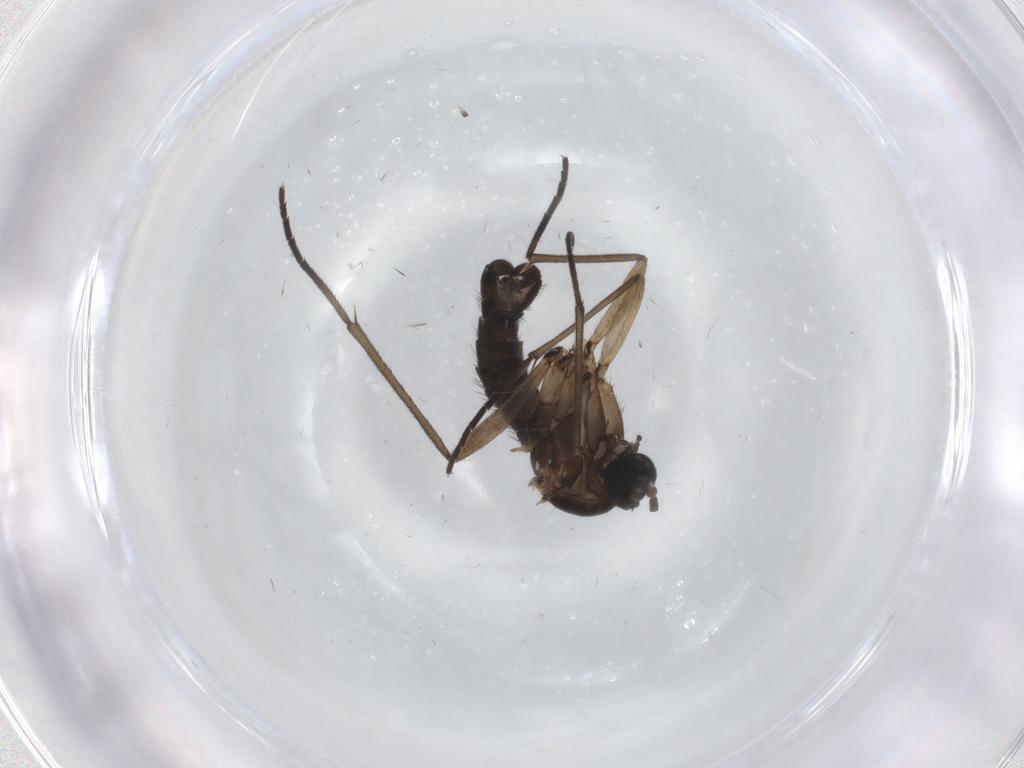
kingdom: Animalia
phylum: Arthropoda
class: Insecta
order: Diptera
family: Sciaridae
